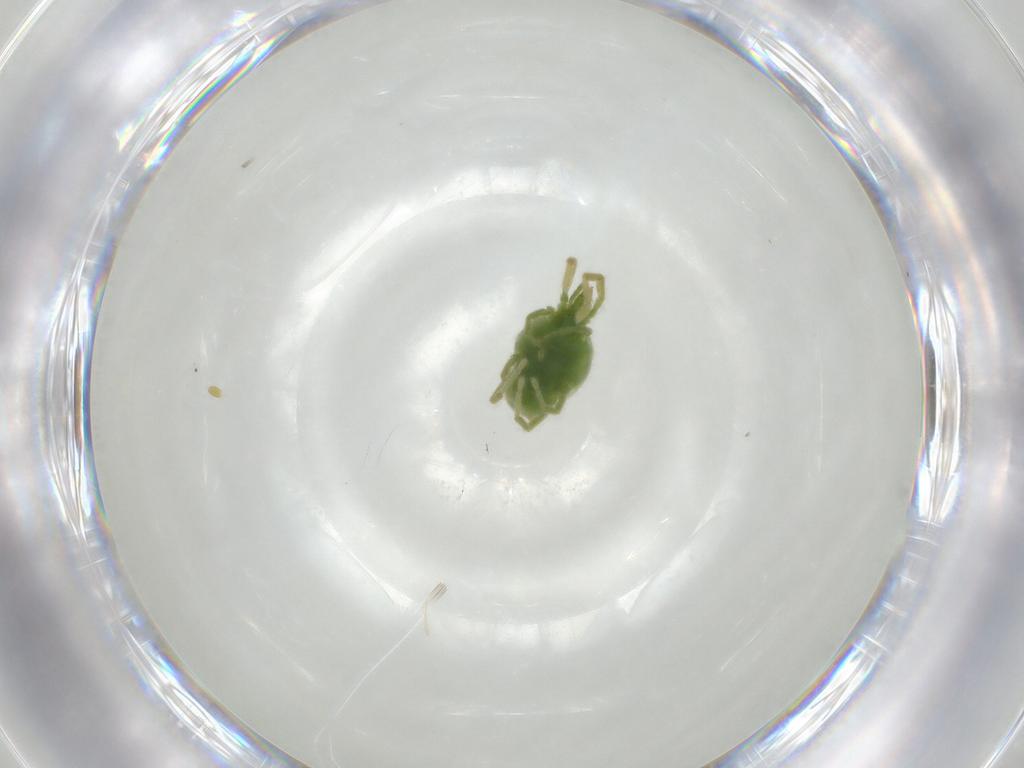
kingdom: Animalia
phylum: Arthropoda
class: Arachnida
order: Trombidiformes
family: Erythraeidae
